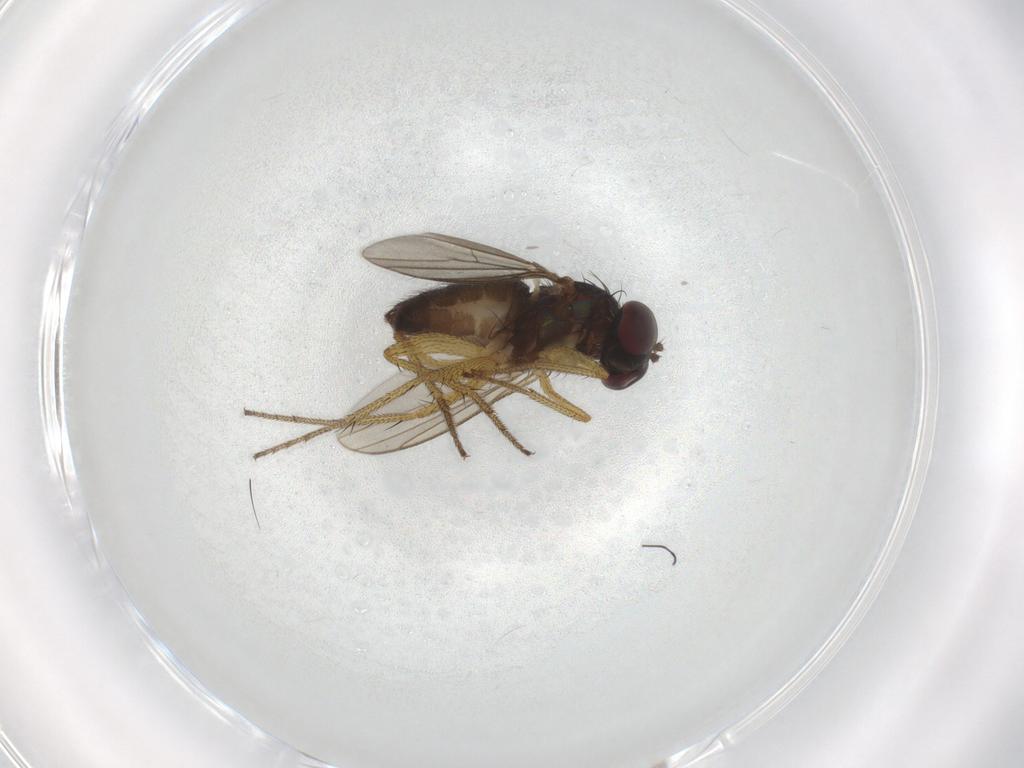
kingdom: Animalia
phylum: Arthropoda
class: Insecta
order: Diptera
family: Dolichopodidae
